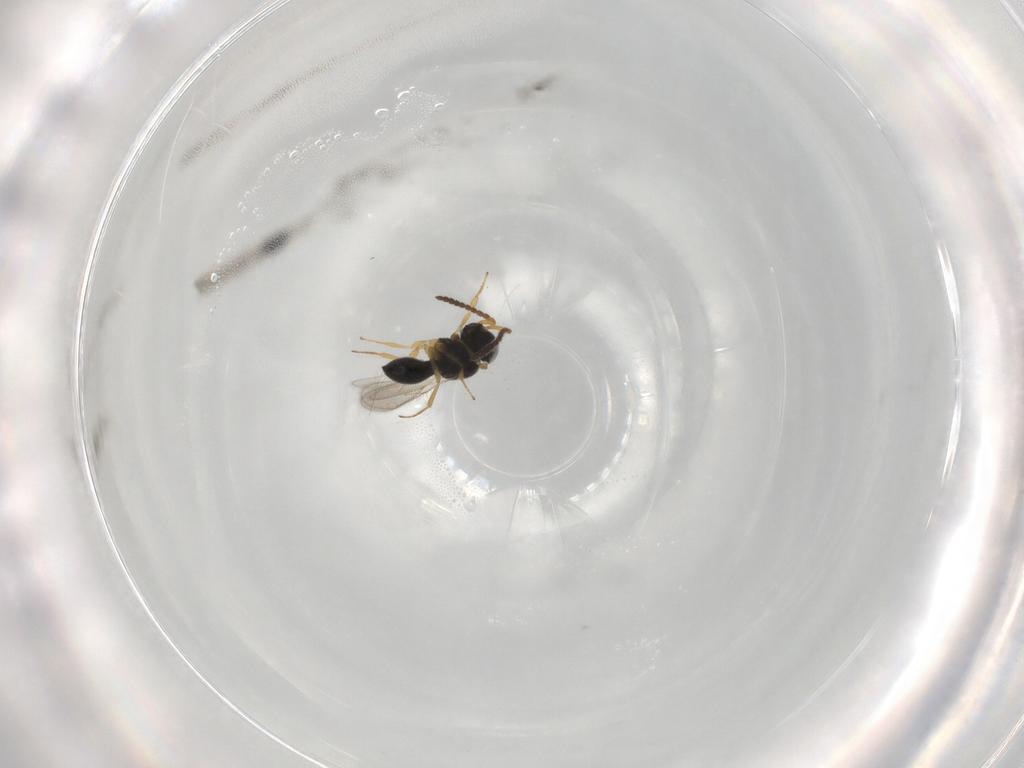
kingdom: Animalia
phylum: Arthropoda
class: Insecta
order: Hymenoptera
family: Scelionidae
